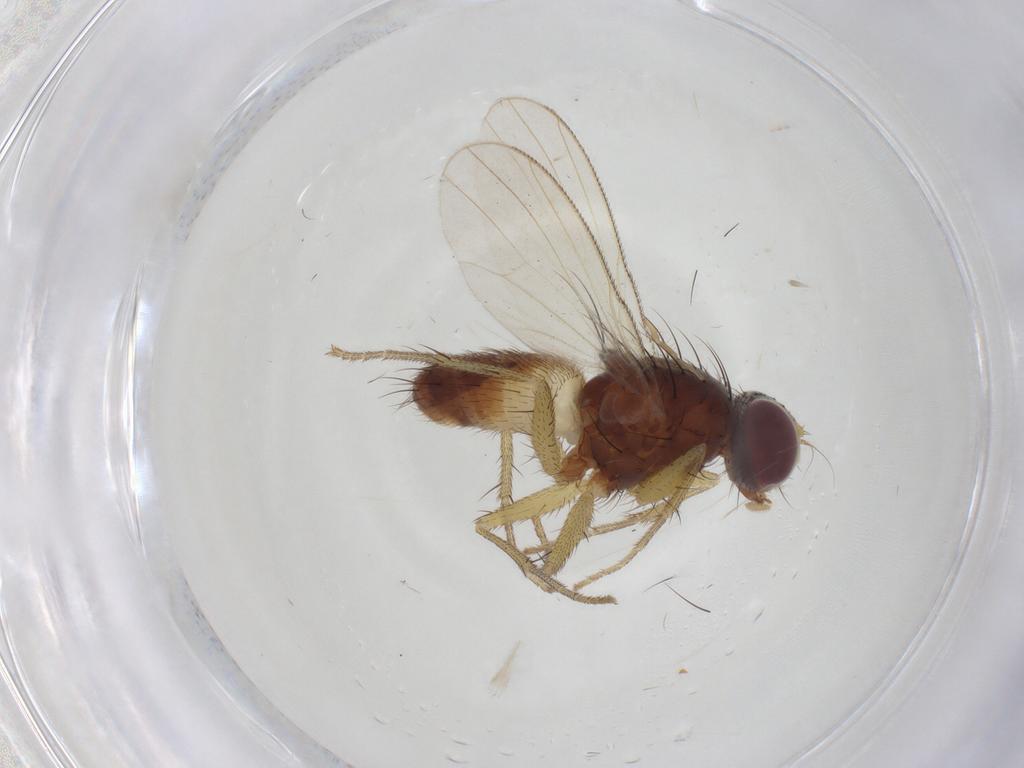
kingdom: Animalia
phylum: Arthropoda
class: Insecta
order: Diptera
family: Muscidae
